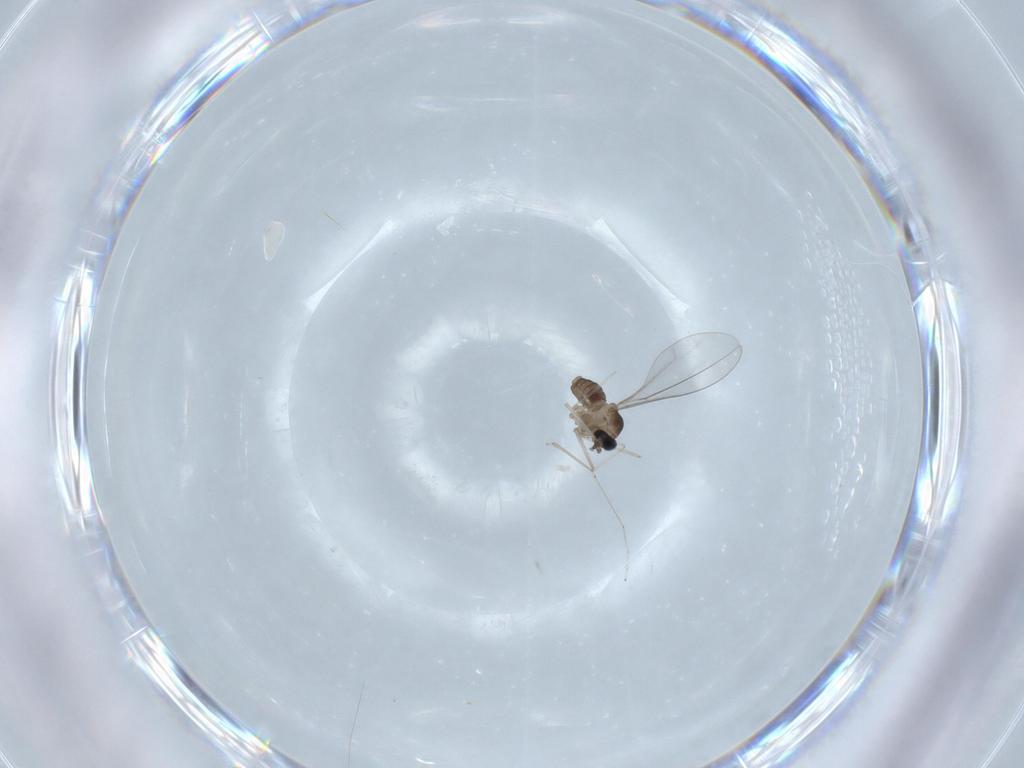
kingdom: Animalia
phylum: Arthropoda
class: Insecta
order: Diptera
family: Cecidomyiidae
